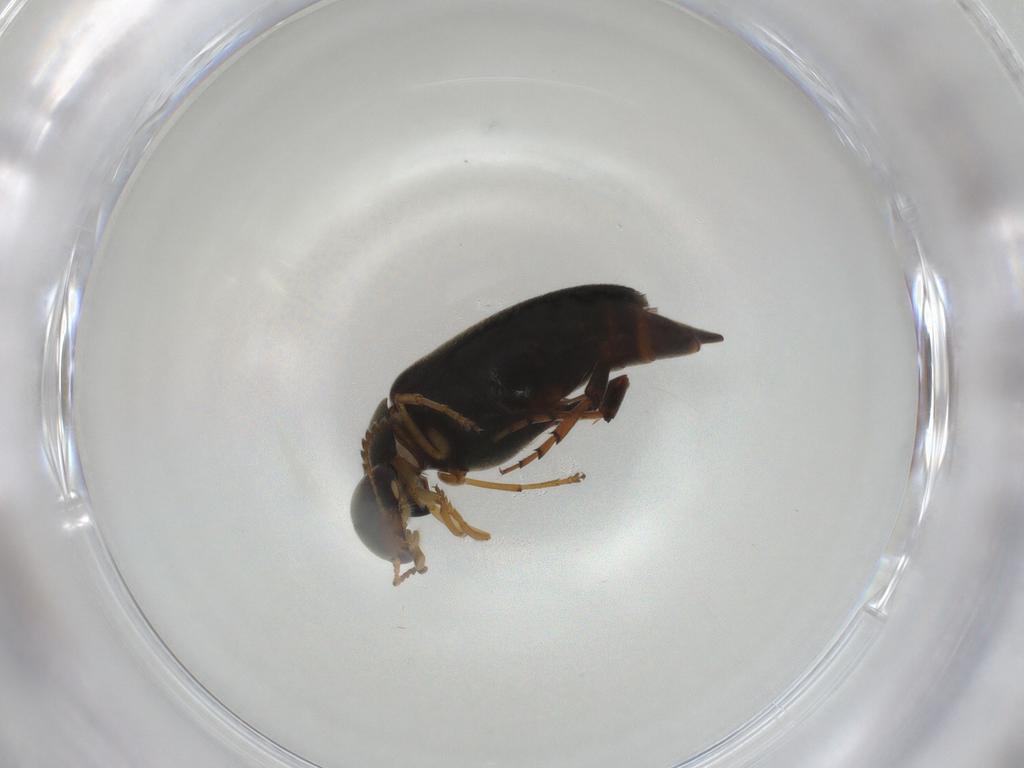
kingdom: Animalia
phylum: Arthropoda
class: Insecta
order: Coleoptera
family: Mordellidae
